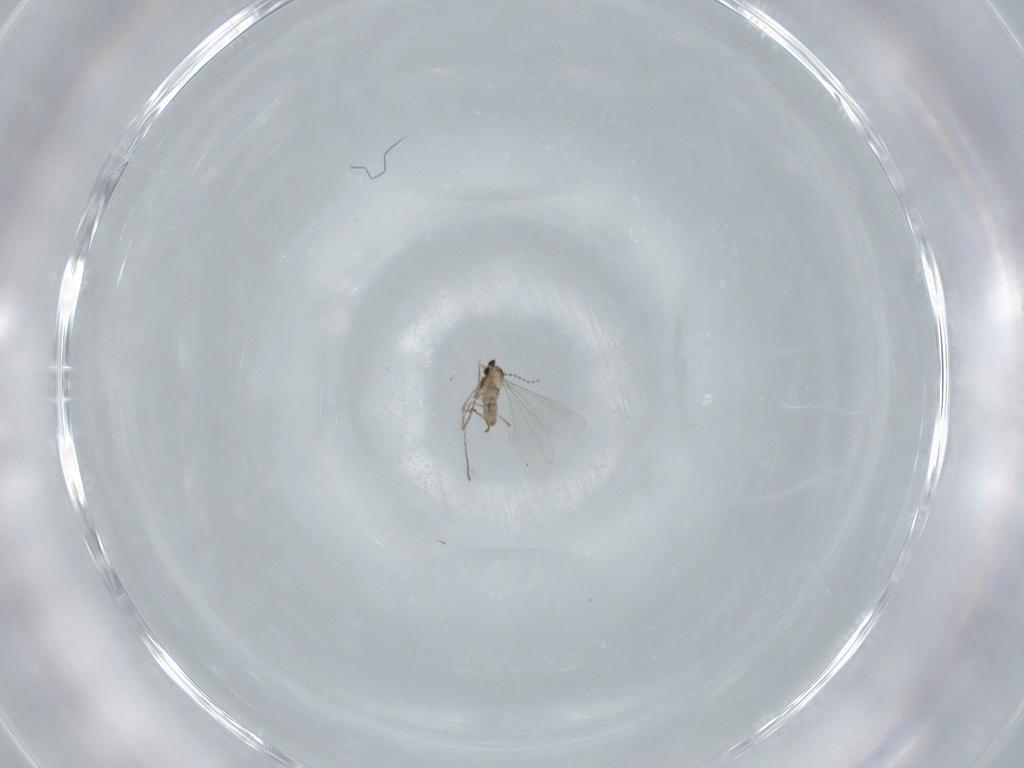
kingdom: Animalia
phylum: Arthropoda
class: Insecta
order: Diptera
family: Cecidomyiidae
